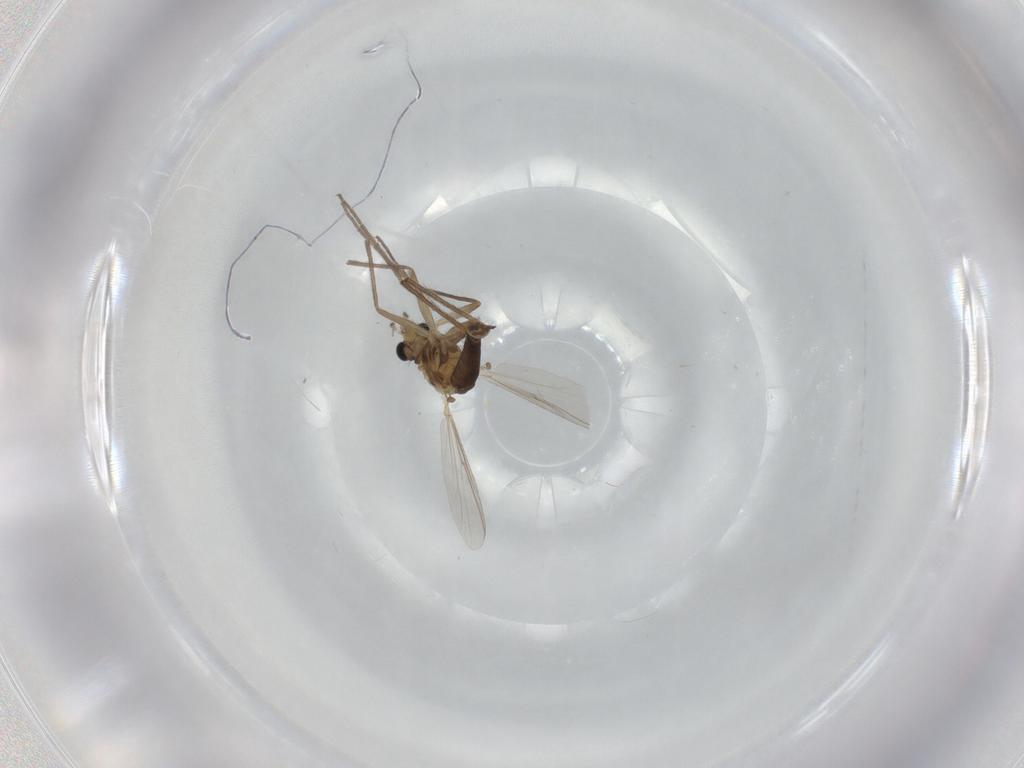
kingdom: Animalia
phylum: Arthropoda
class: Insecta
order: Diptera
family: Chironomidae
